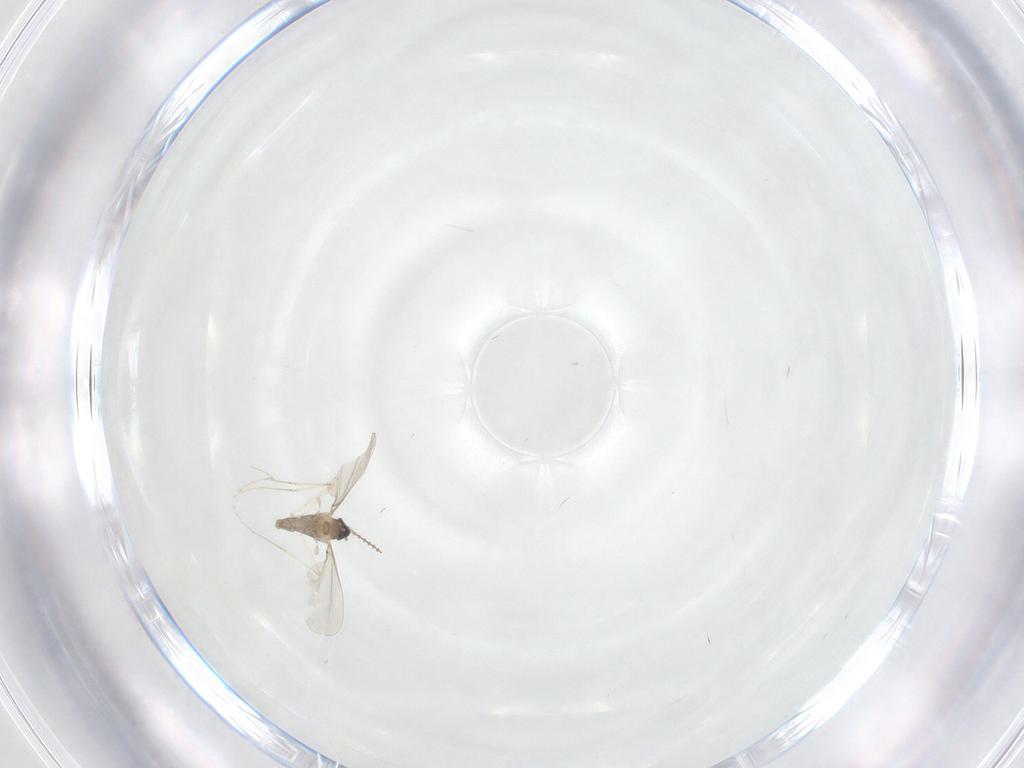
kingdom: Animalia
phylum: Arthropoda
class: Insecta
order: Diptera
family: Cecidomyiidae
